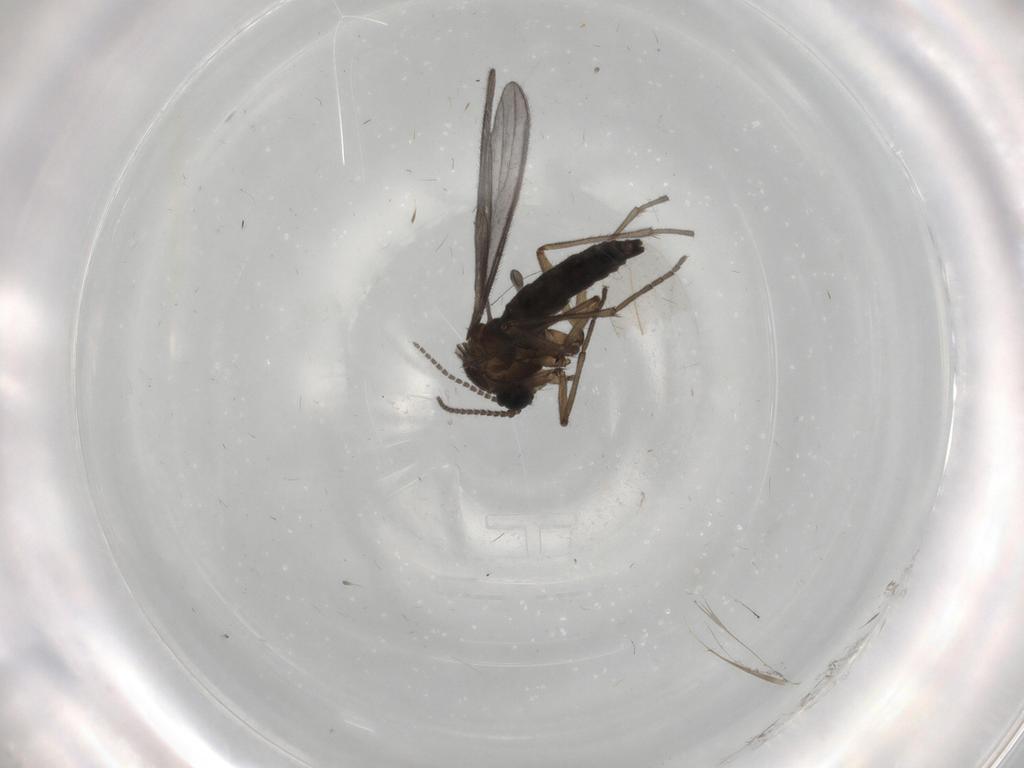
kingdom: Animalia
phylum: Arthropoda
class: Insecta
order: Diptera
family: Sciaridae
